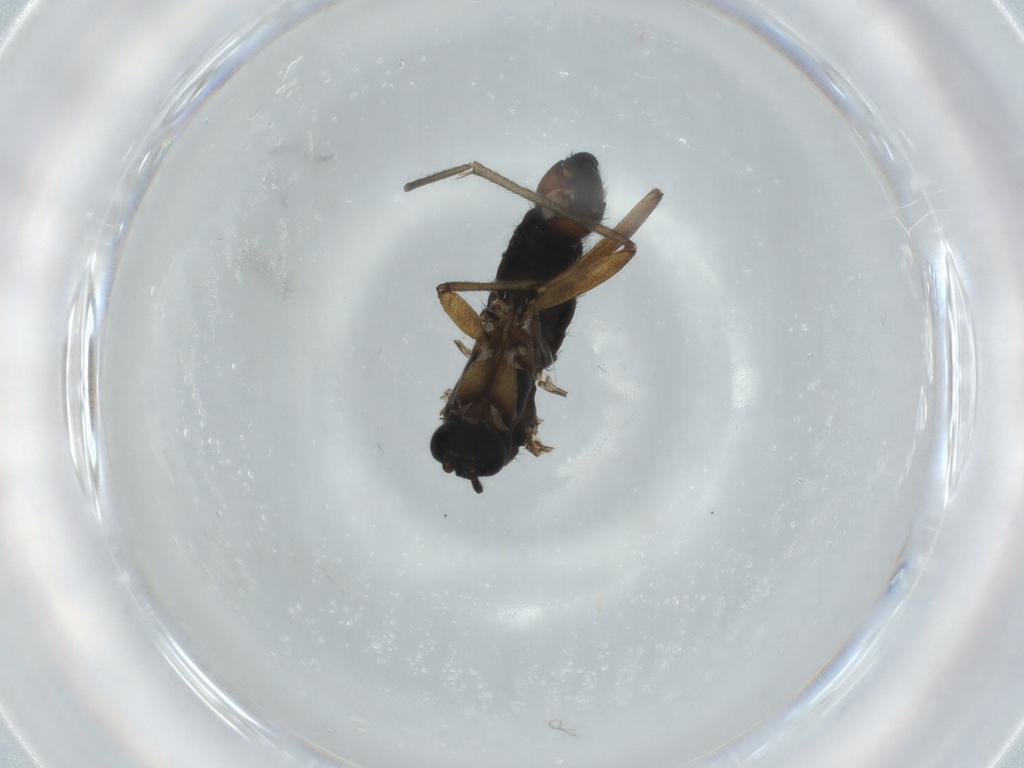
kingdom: Animalia
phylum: Arthropoda
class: Insecta
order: Diptera
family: Sciaridae
